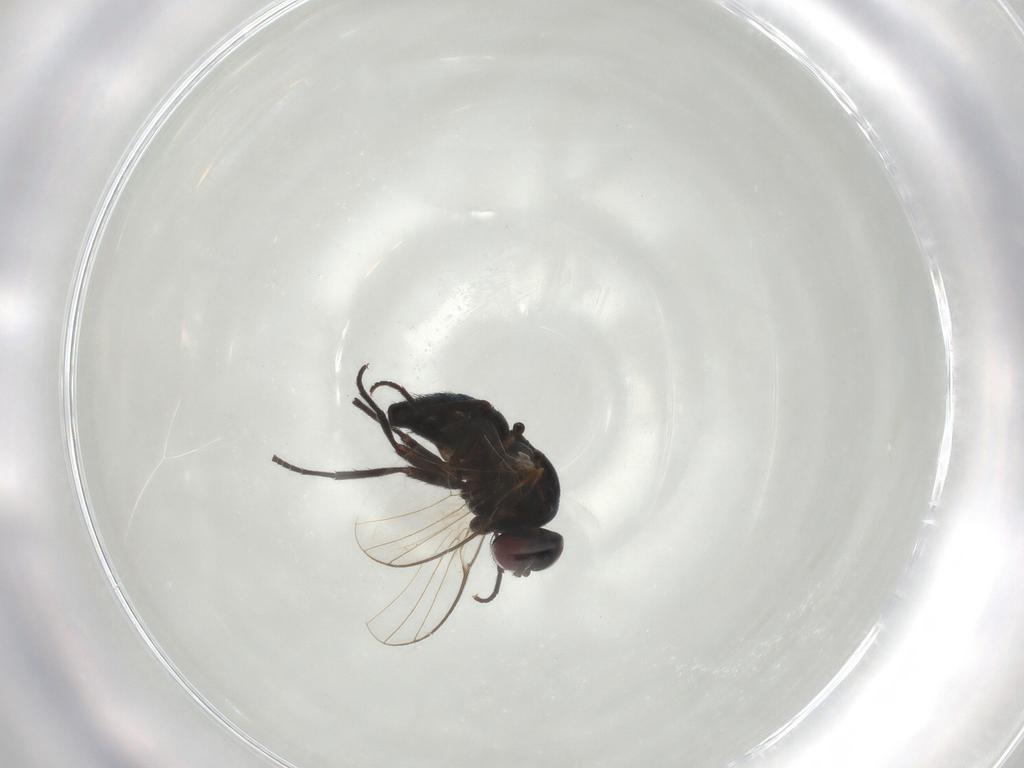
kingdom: Animalia
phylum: Arthropoda
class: Insecta
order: Diptera
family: Agromyzidae
